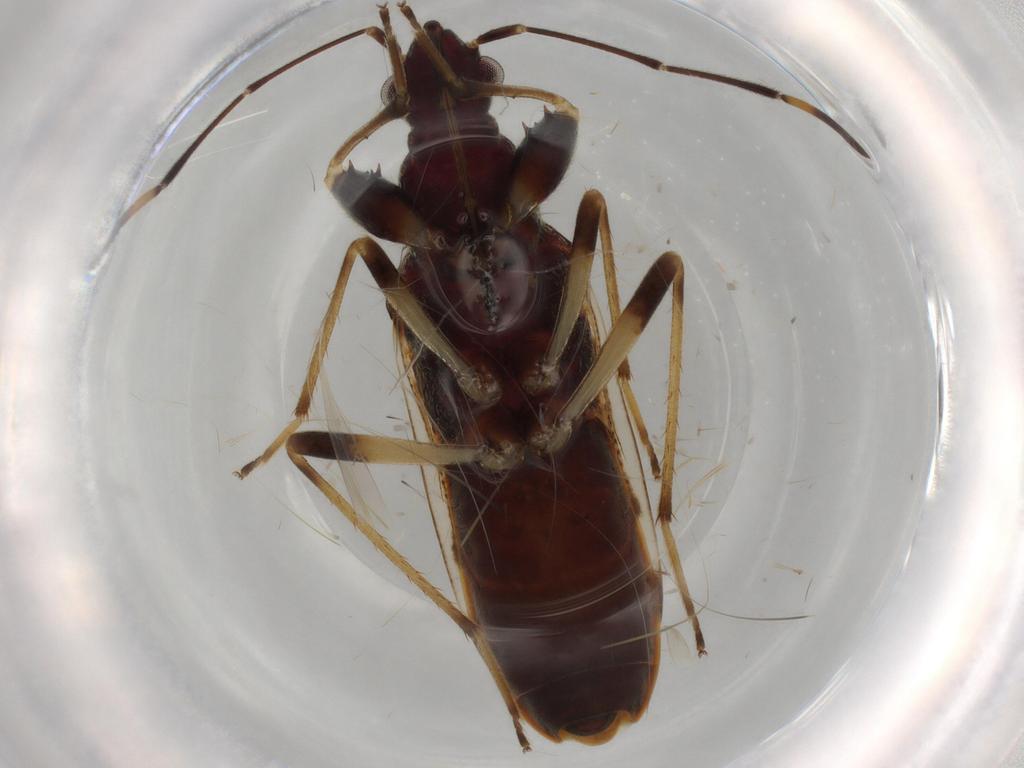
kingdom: Animalia
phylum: Arthropoda
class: Insecta
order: Hemiptera
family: Rhyparochromidae
